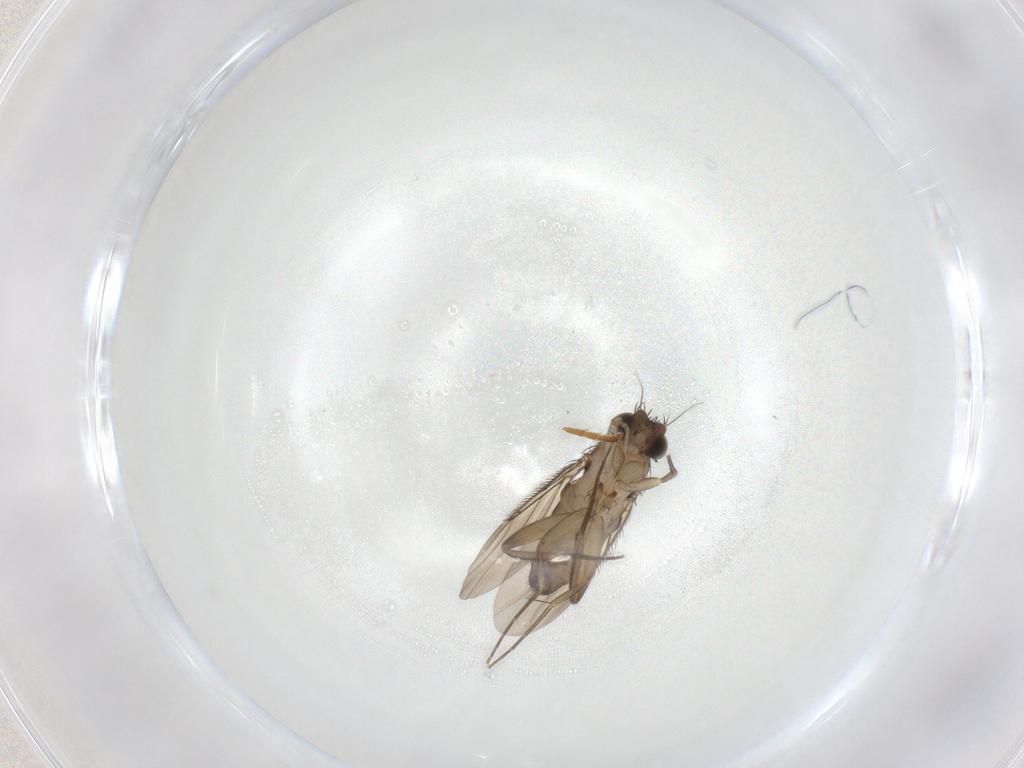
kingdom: Animalia
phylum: Arthropoda
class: Insecta
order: Diptera
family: Phoridae
